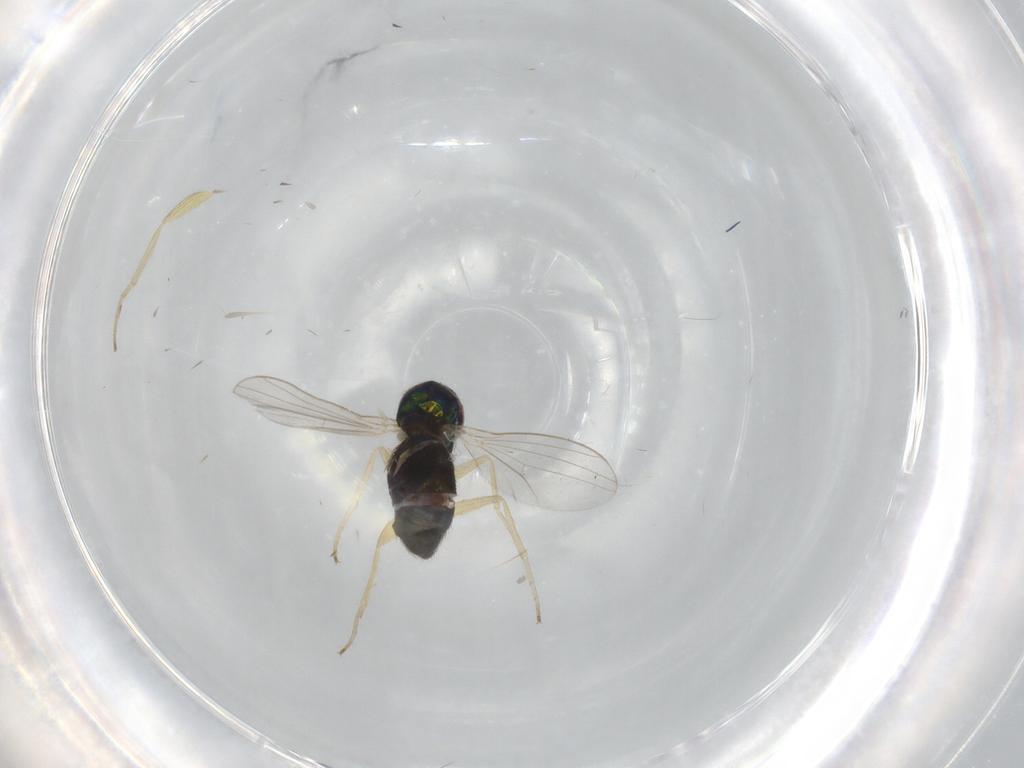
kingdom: Animalia
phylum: Arthropoda
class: Insecta
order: Diptera
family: Dolichopodidae
